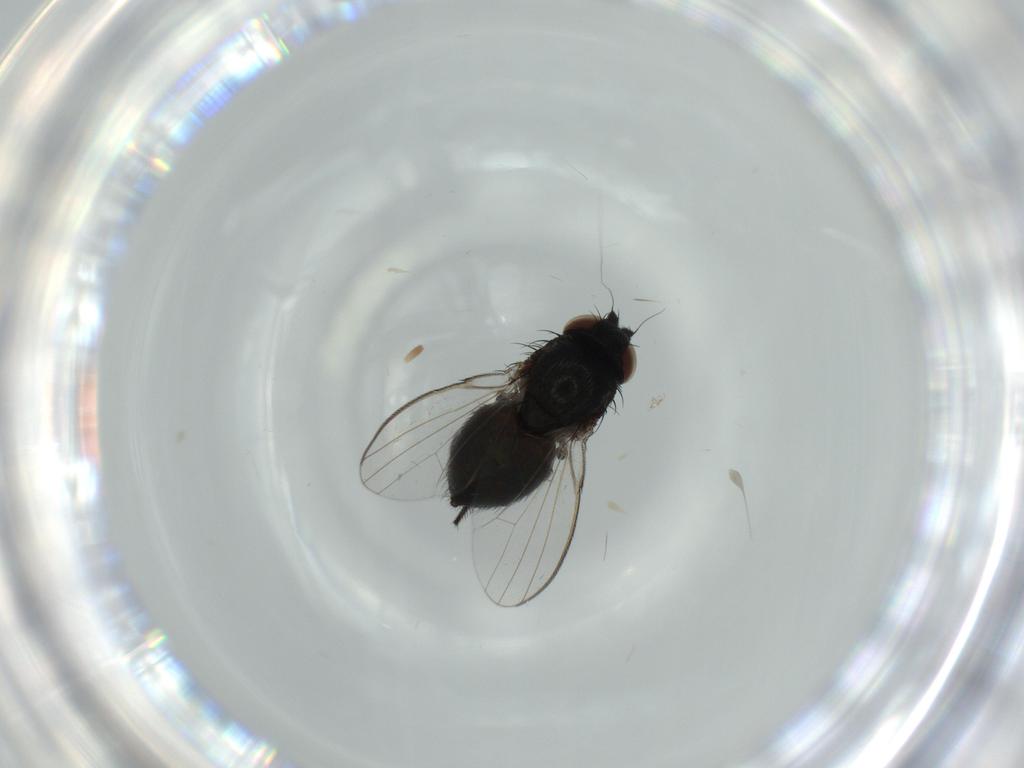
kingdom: Animalia
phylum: Arthropoda
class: Insecta
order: Diptera
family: Milichiidae
